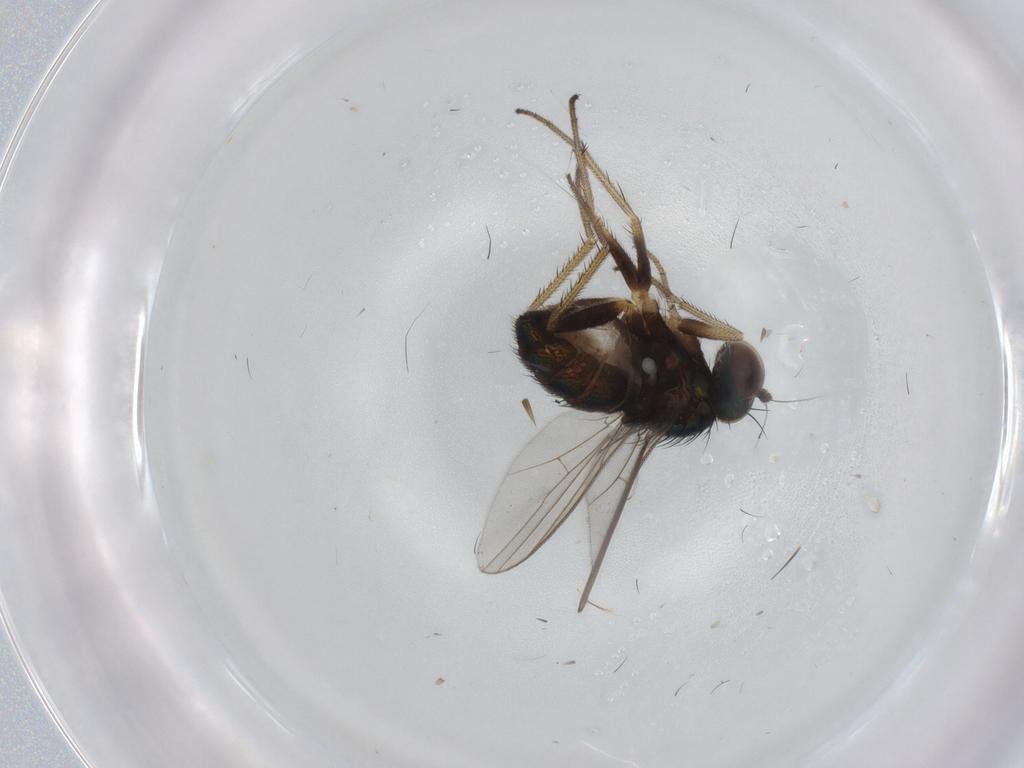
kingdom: Animalia
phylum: Arthropoda
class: Insecta
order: Diptera
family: Dolichopodidae
